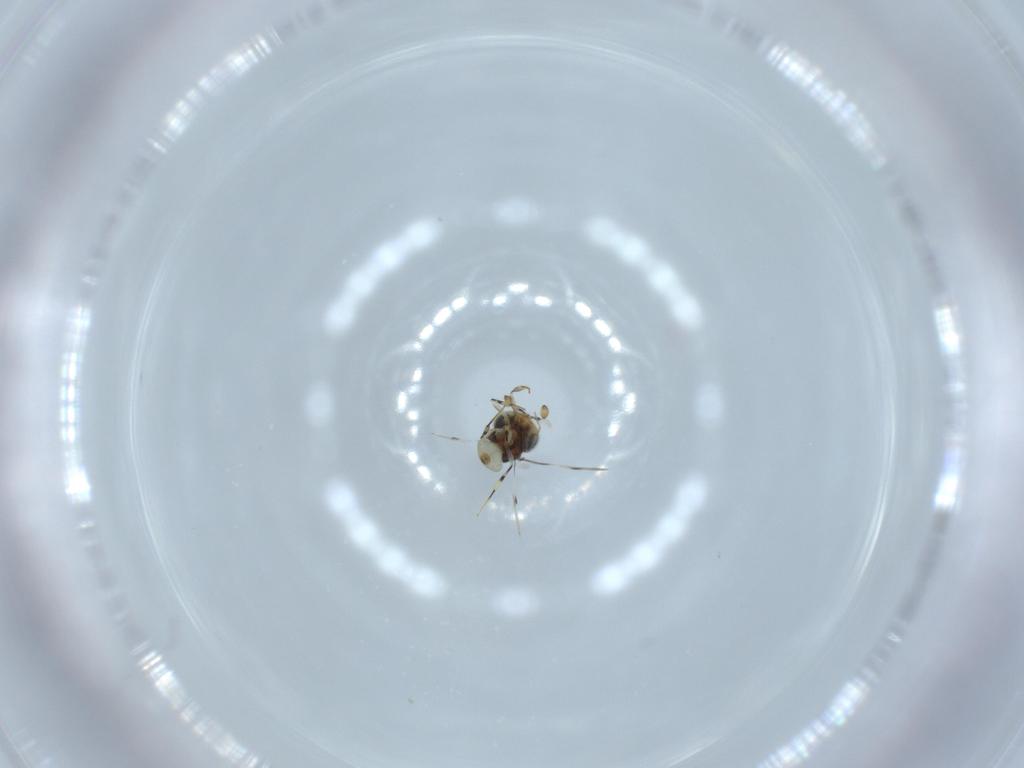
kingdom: Animalia
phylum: Arthropoda
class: Insecta
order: Hymenoptera
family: Scelionidae
